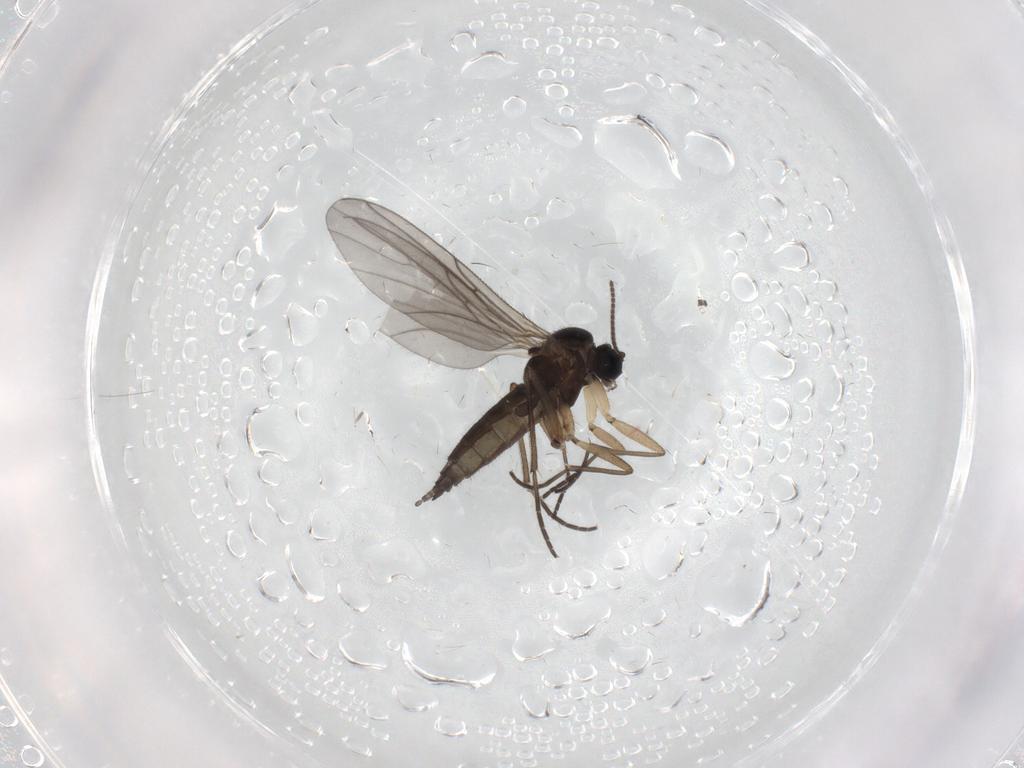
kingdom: Animalia
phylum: Arthropoda
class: Insecta
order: Diptera
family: Sciaridae
